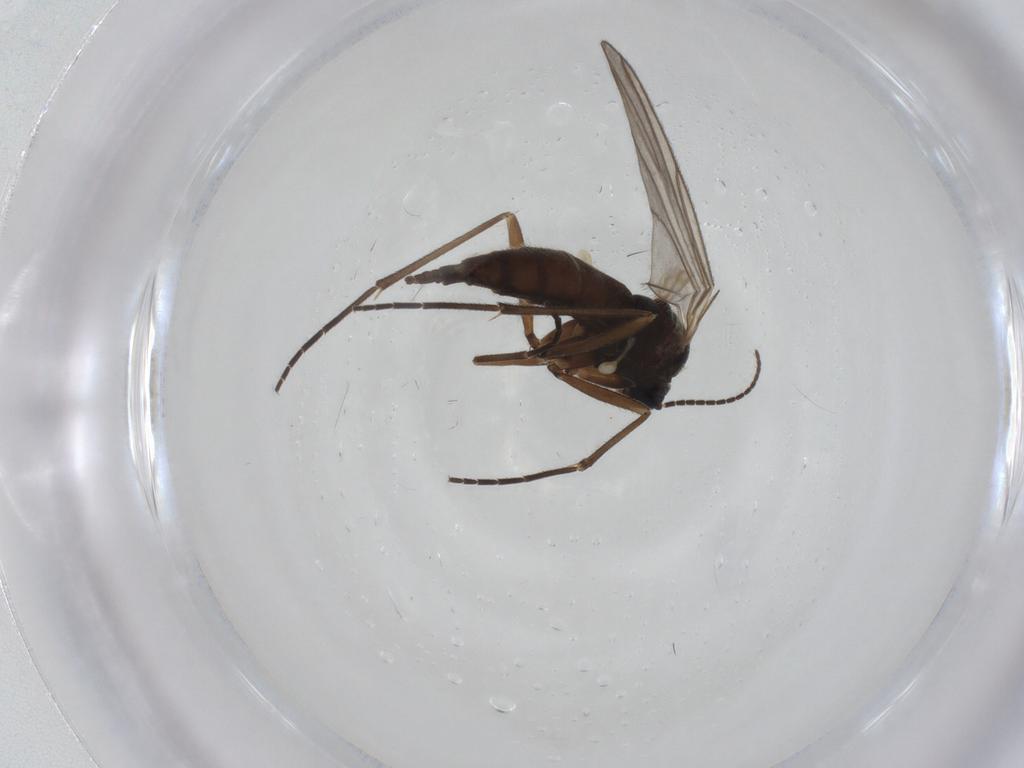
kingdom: Animalia
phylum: Arthropoda
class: Insecta
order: Diptera
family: Sciaridae
